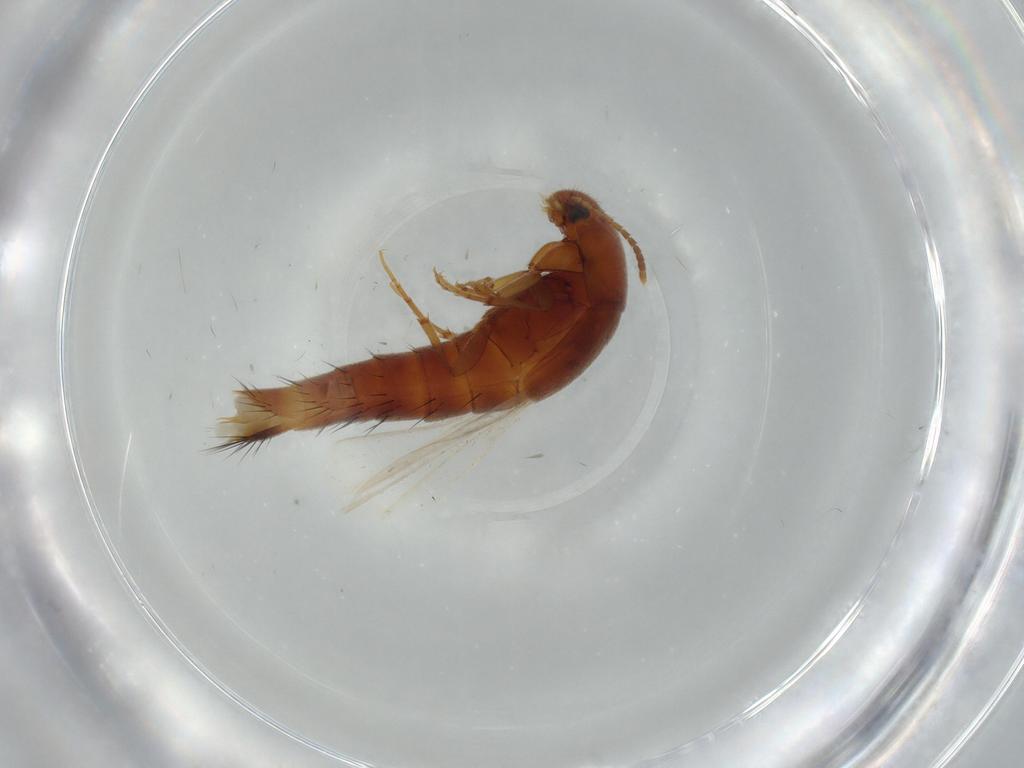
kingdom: Animalia
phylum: Arthropoda
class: Insecta
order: Coleoptera
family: Staphylinidae
